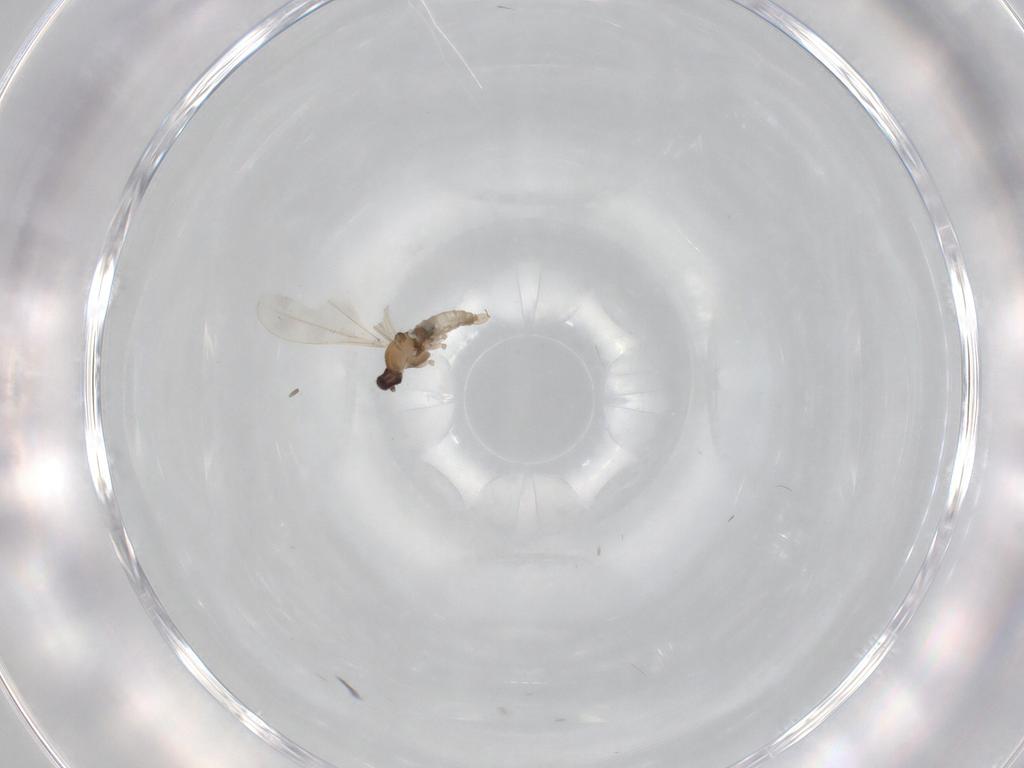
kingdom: Animalia
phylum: Arthropoda
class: Insecta
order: Diptera
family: Cecidomyiidae
